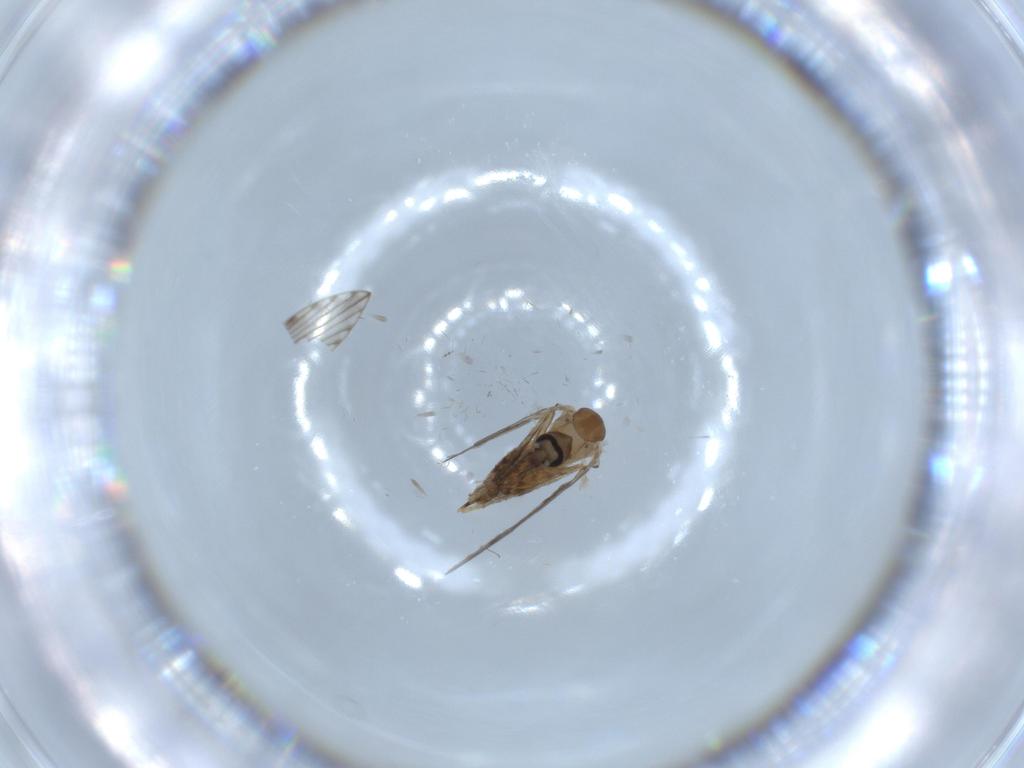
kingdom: Animalia
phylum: Arthropoda
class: Insecta
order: Diptera
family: Psychodidae
